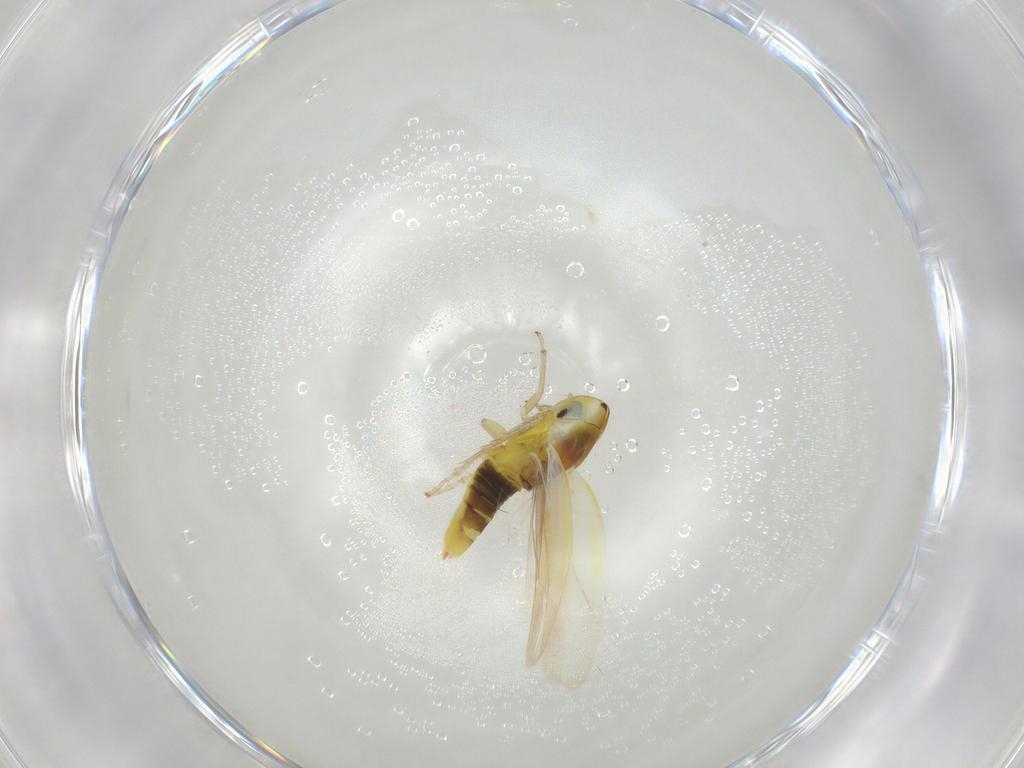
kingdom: Animalia
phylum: Arthropoda
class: Insecta
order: Hemiptera
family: Cicadellidae
